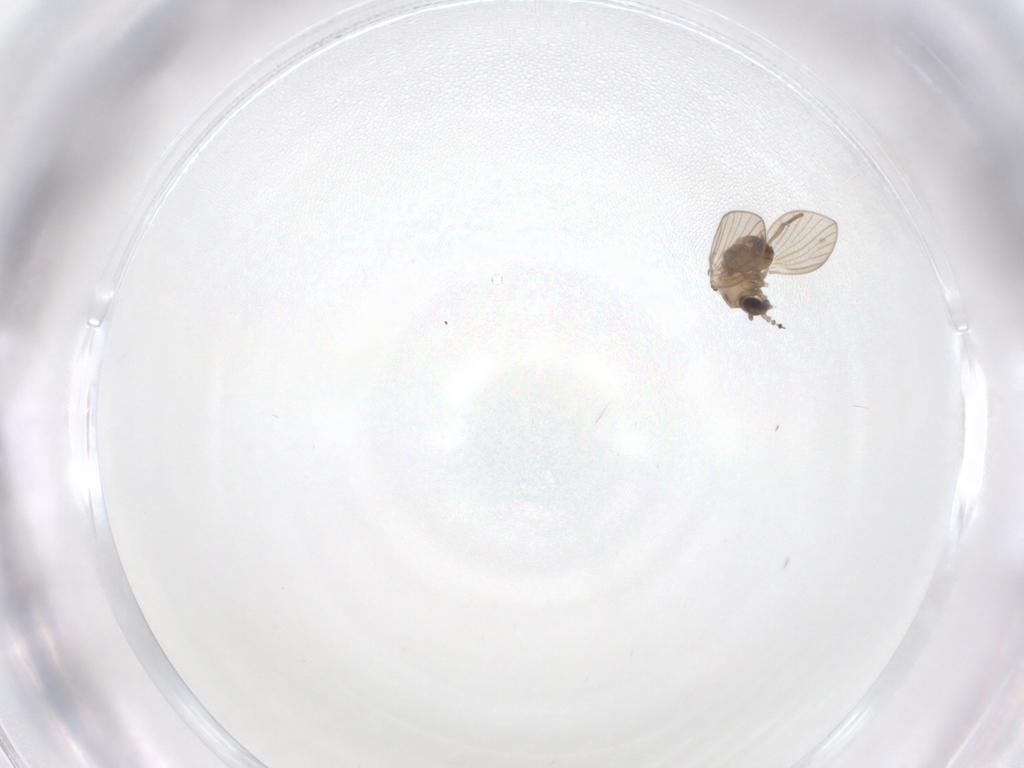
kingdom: Animalia
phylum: Arthropoda
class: Insecta
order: Diptera
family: Psychodidae
